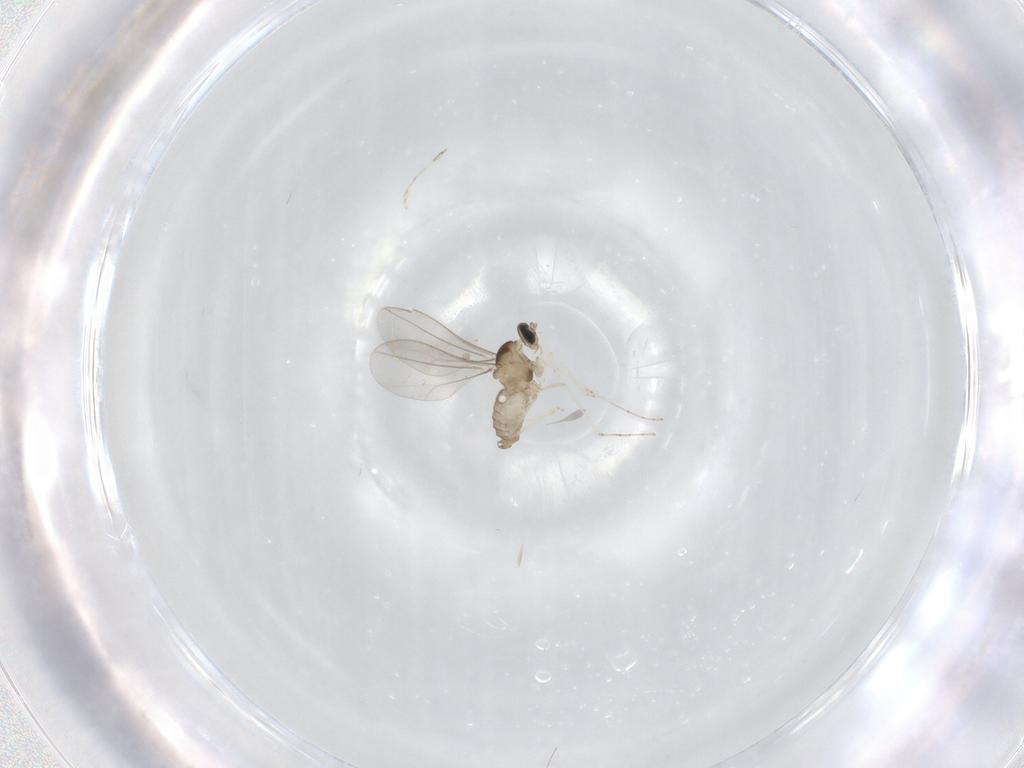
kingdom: Animalia
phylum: Arthropoda
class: Insecta
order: Diptera
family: Cecidomyiidae
